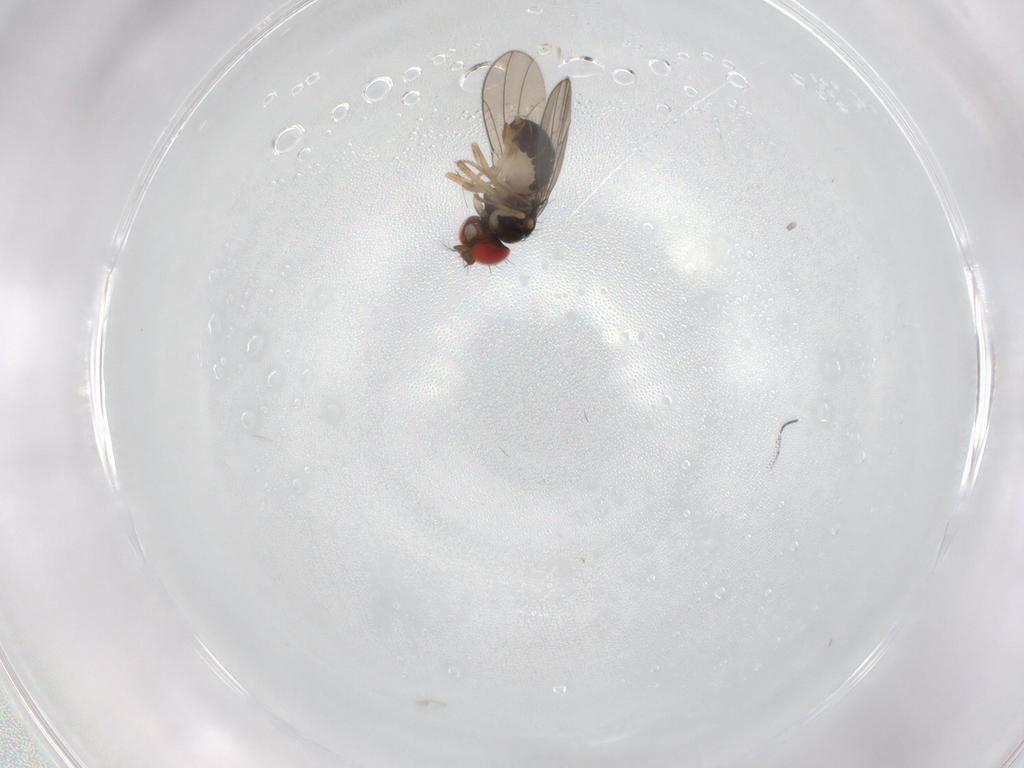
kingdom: Animalia
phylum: Arthropoda
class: Insecta
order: Diptera
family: Drosophilidae
